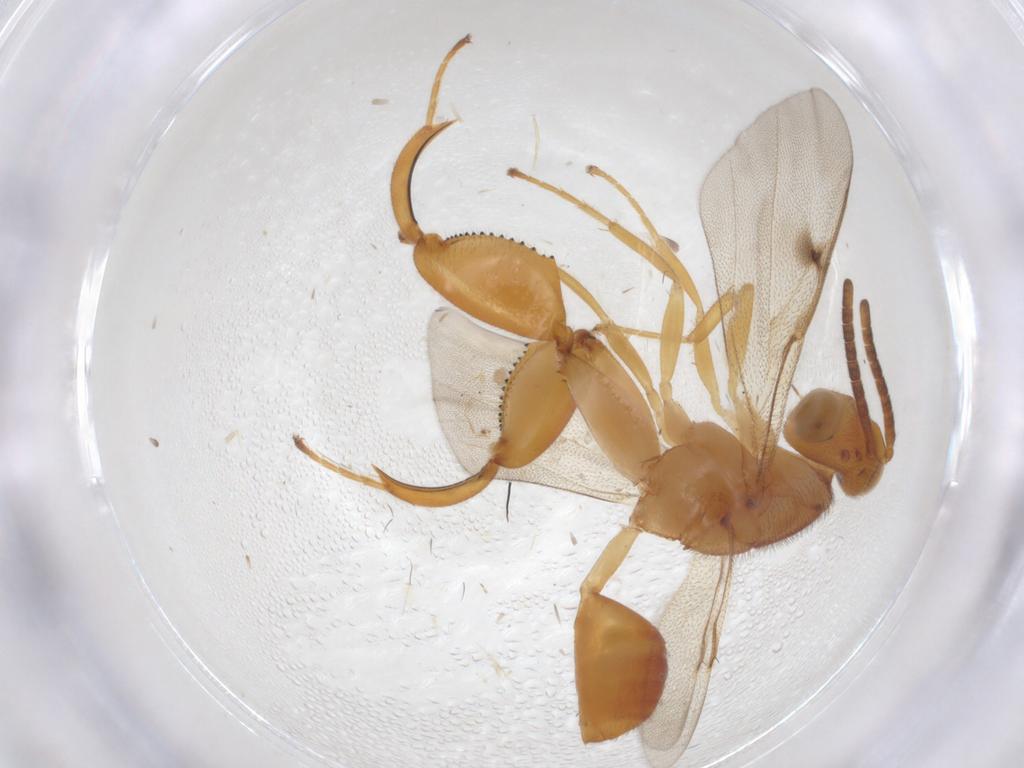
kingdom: Animalia
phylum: Arthropoda
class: Insecta
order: Hymenoptera
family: Chalcididae
